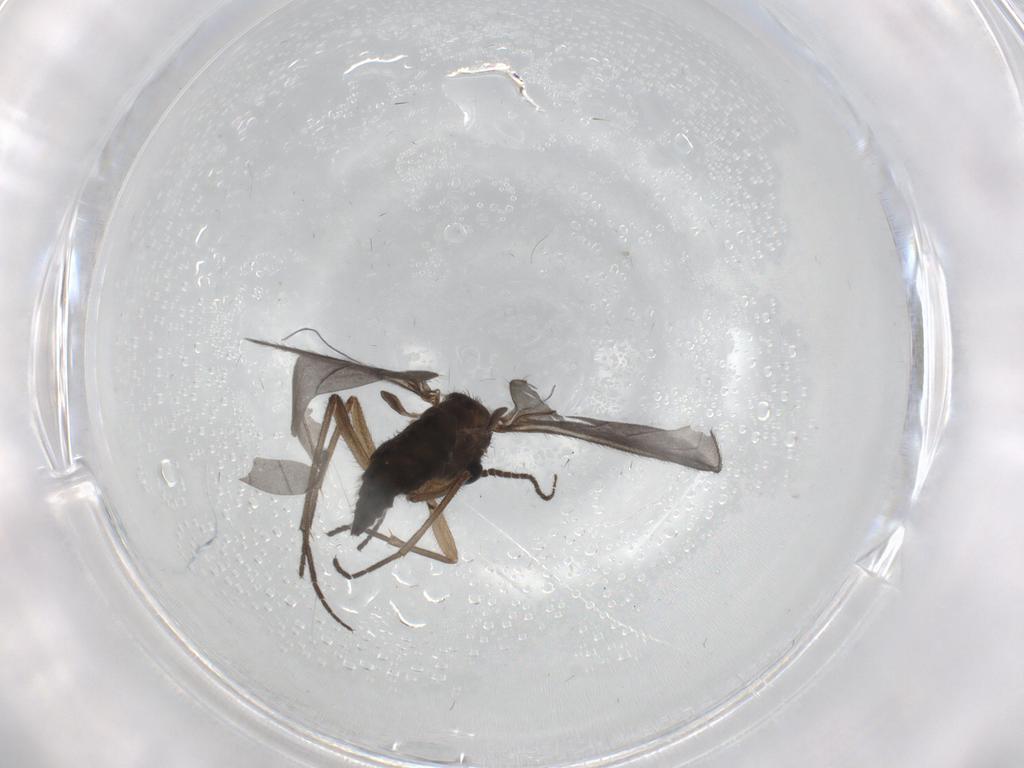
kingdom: Animalia
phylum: Arthropoda
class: Insecta
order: Diptera
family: Sciaridae
